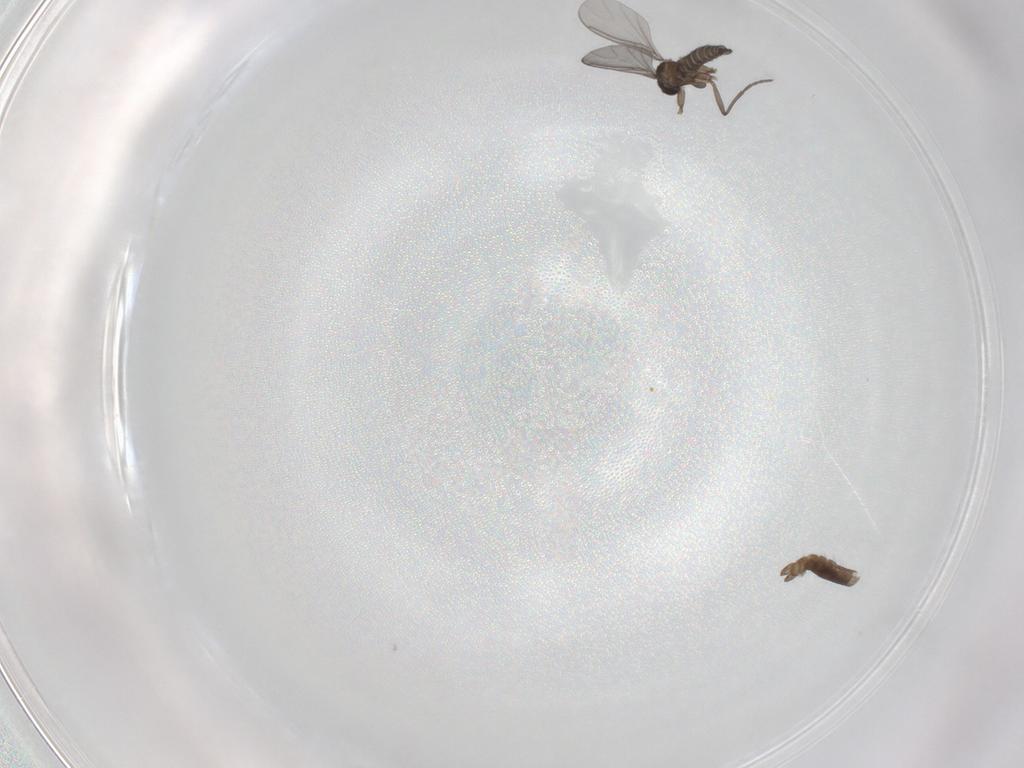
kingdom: Animalia
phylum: Arthropoda
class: Insecta
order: Diptera
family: Sciaridae
